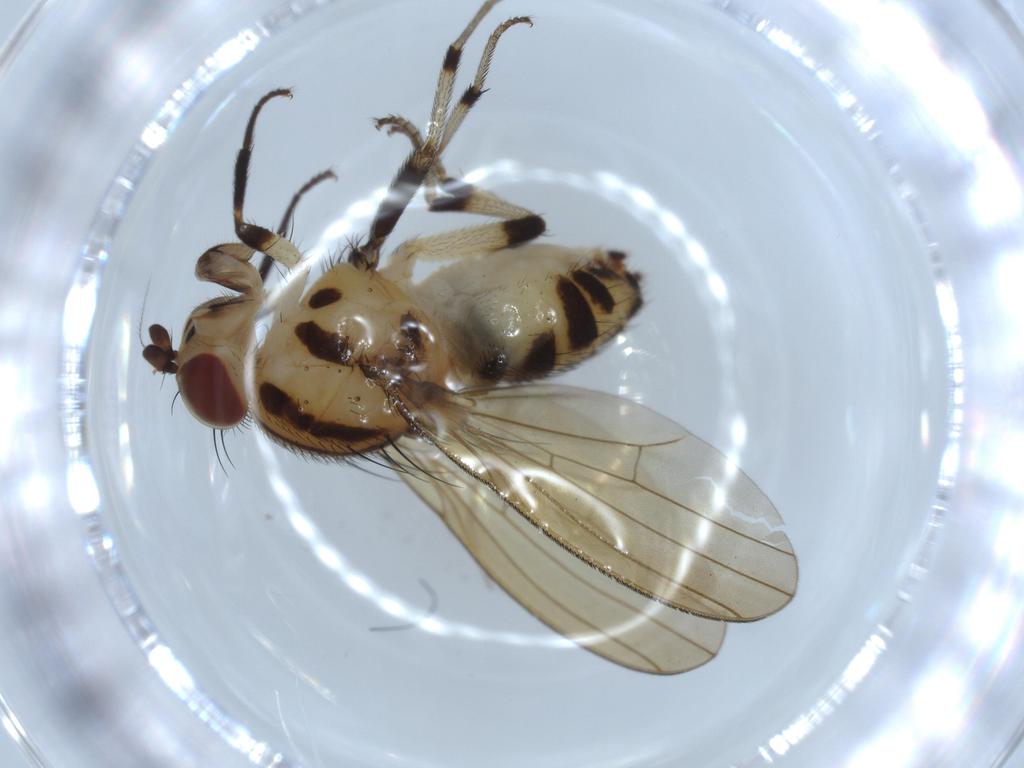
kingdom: Animalia
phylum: Arthropoda
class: Insecta
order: Diptera
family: Lauxaniidae
